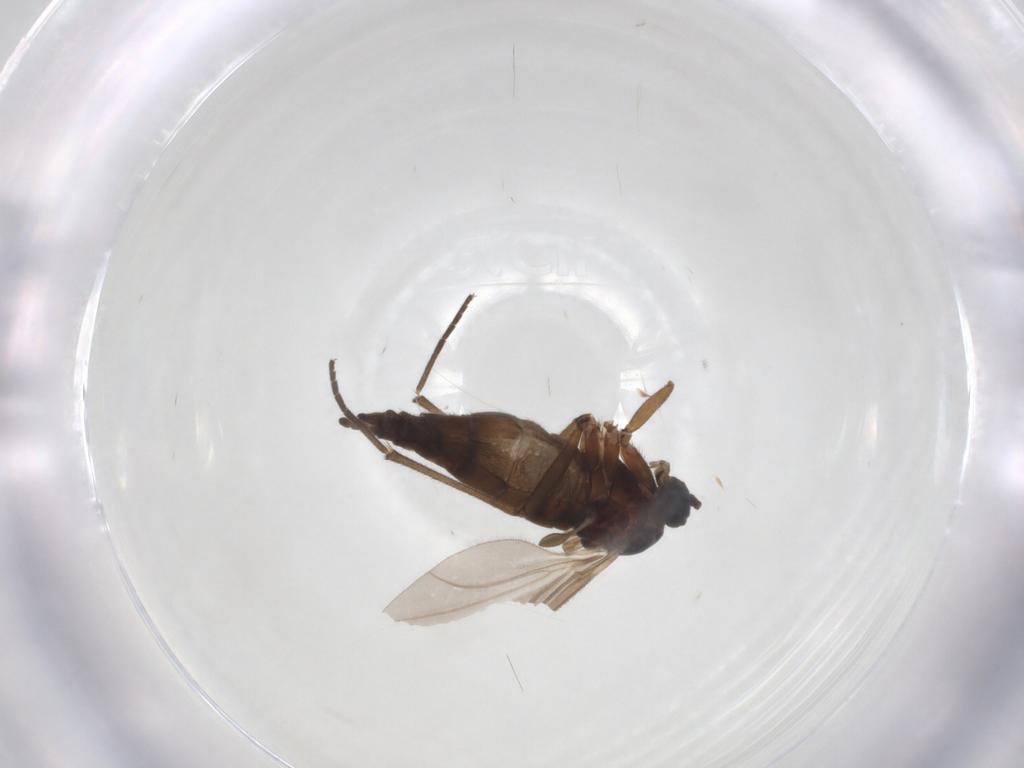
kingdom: Animalia
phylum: Arthropoda
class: Insecta
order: Diptera
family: Sciaridae
